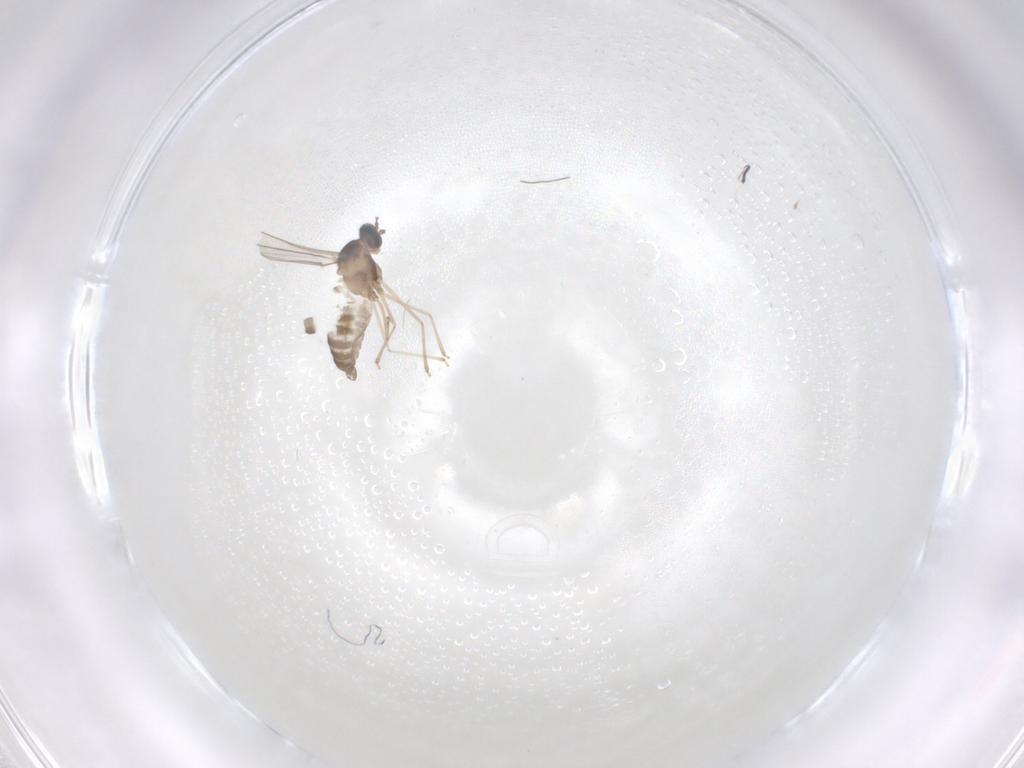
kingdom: Animalia
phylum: Arthropoda
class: Insecta
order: Diptera
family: Cecidomyiidae
